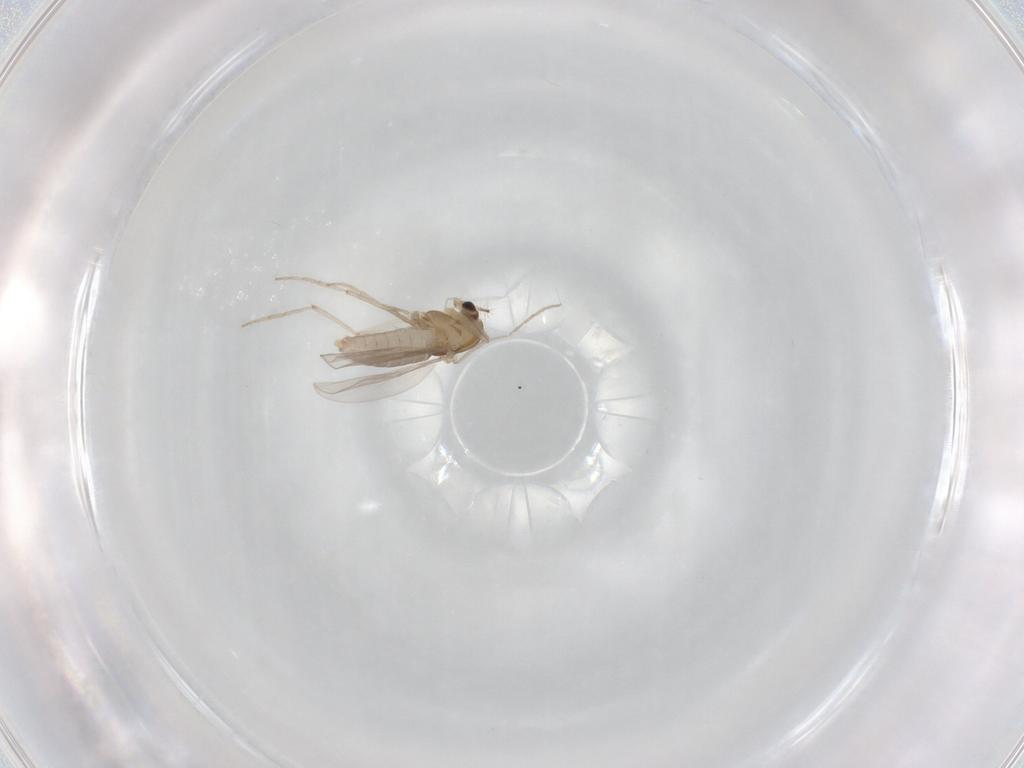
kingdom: Animalia
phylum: Arthropoda
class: Insecta
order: Diptera
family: Chironomidae
